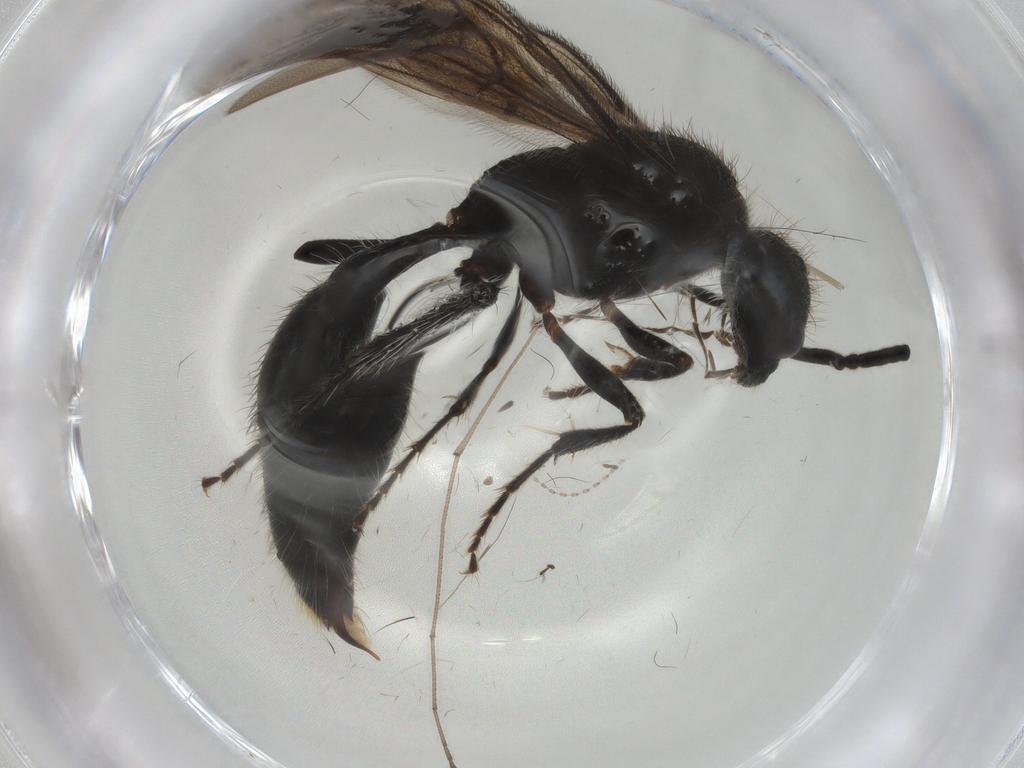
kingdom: Animalia
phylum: Arthropoda
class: Insecta
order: Hymenoptera
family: Mutillidae
